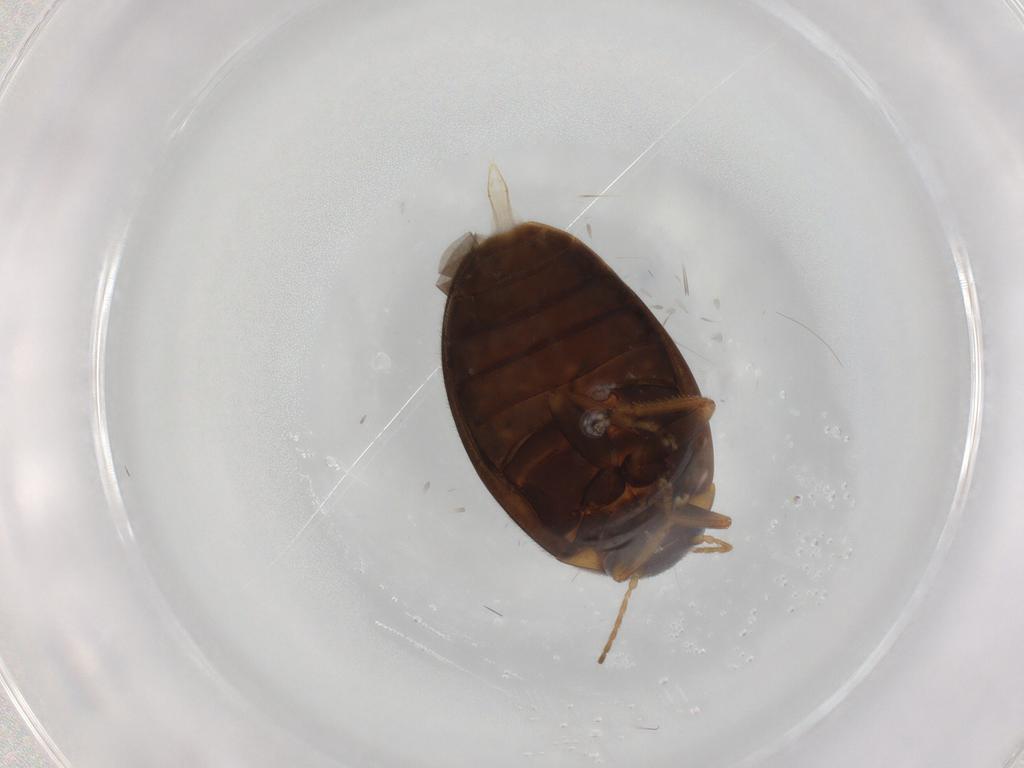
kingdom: Animalia
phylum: Arthropoda
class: Insecta
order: Coleoptera
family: Scirtidae
